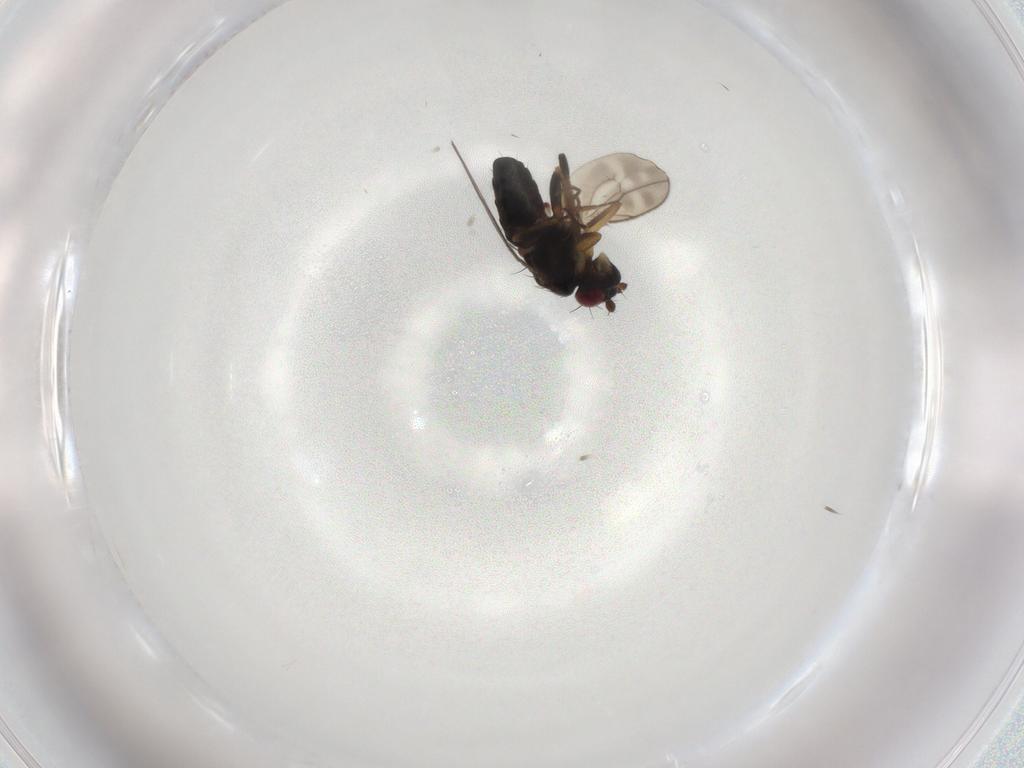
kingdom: Animalia
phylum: Arthropoda
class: Insecta
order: Diptera
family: Sphaeroceridae
